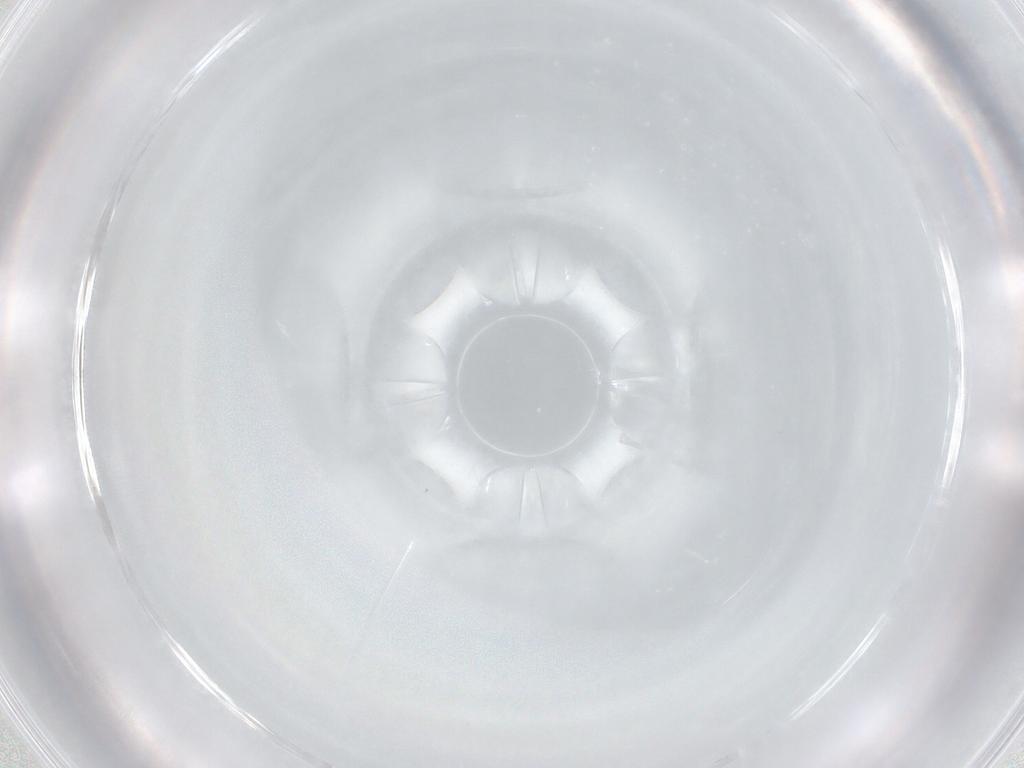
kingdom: Animalia
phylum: Arthropoda
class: Insecta
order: Diptera
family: Phoridae
